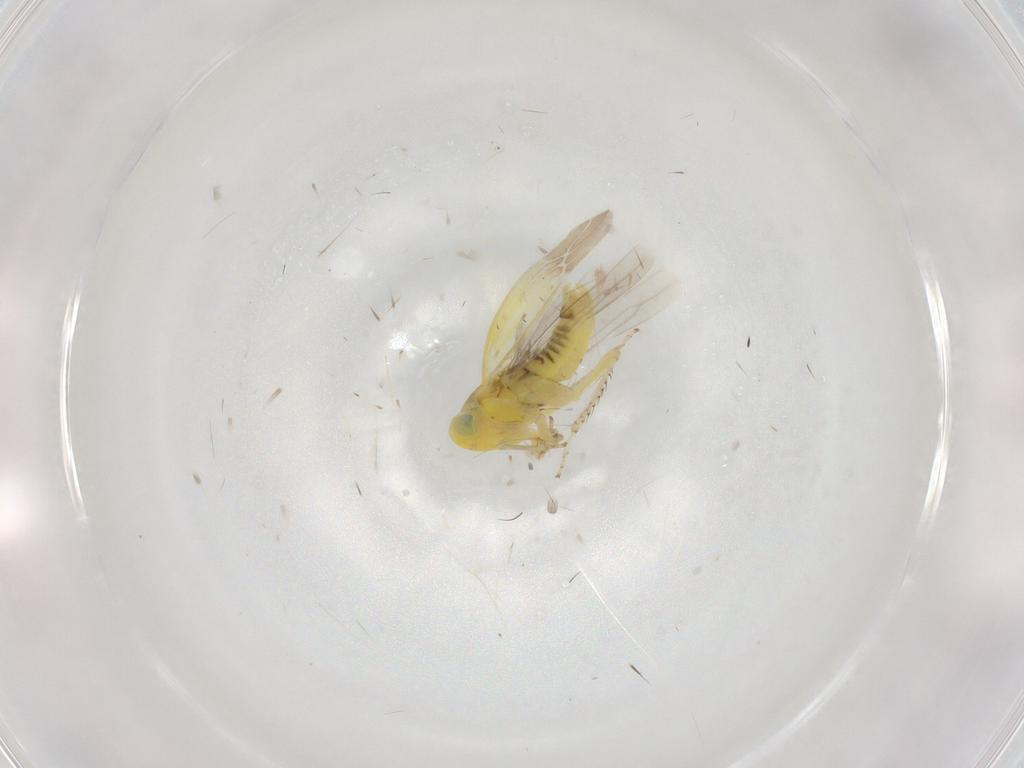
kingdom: Animalia
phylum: Arthropoda
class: Insecta
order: Hemiptera
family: Cicadellidae
